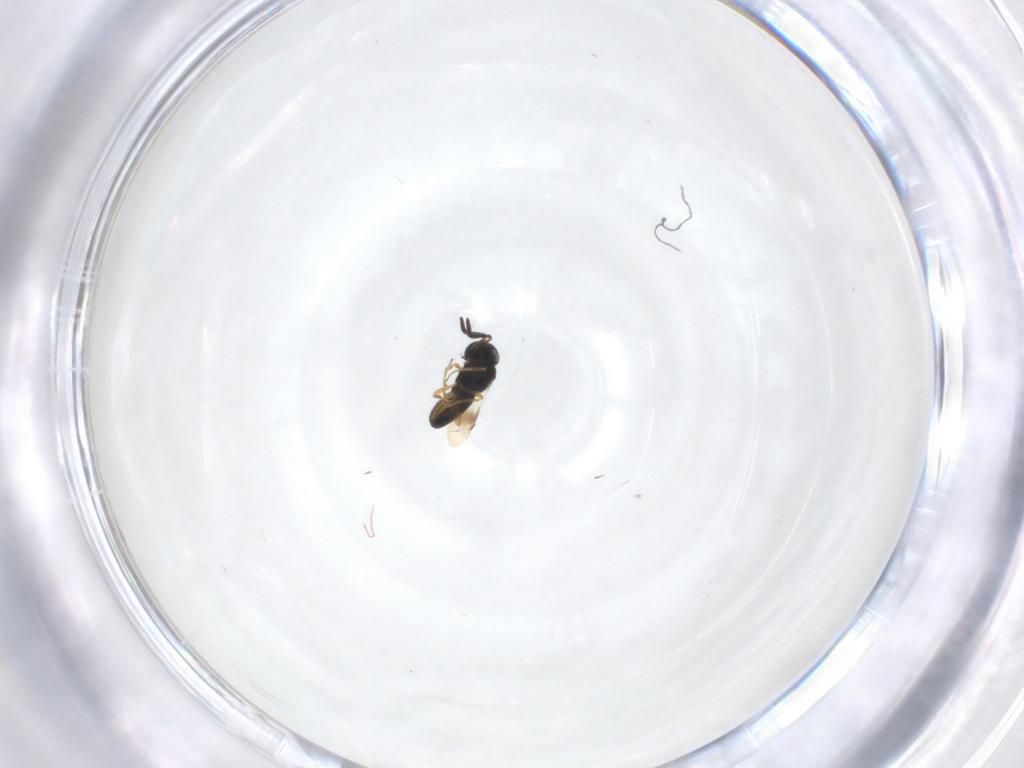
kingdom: Animalia
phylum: Arthropoda
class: Insecta
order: Hymenoptera
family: Scelionidae
